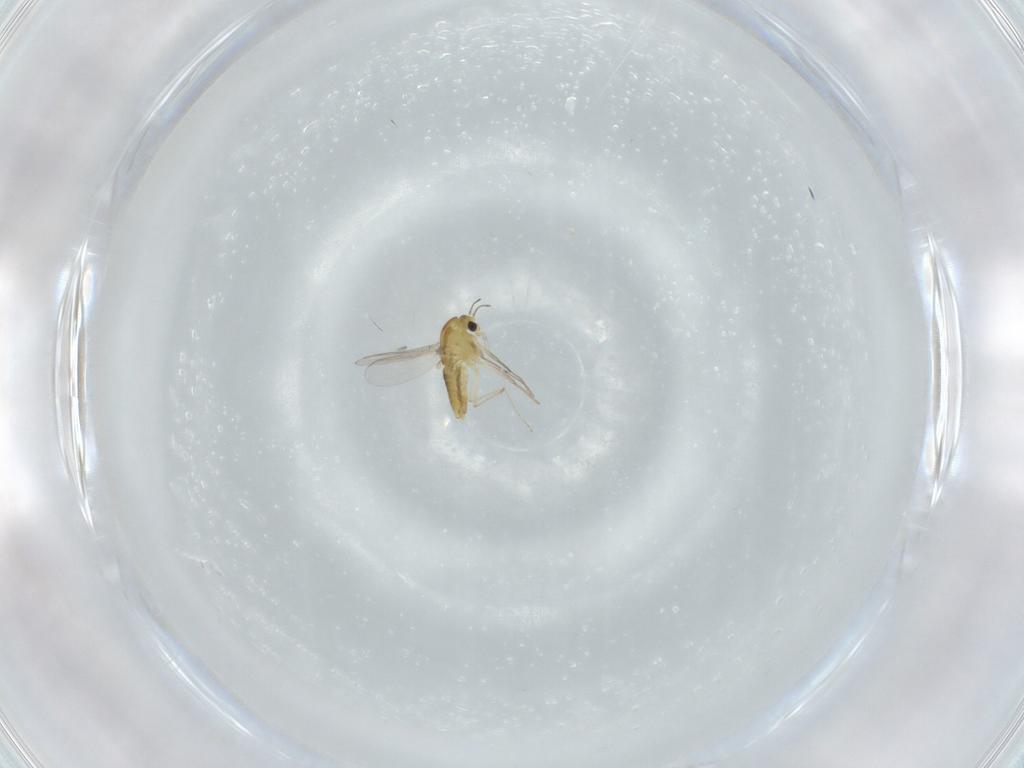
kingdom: Animalia
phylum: Arthropoda
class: Insecta
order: Diptera
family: Chironomidae
